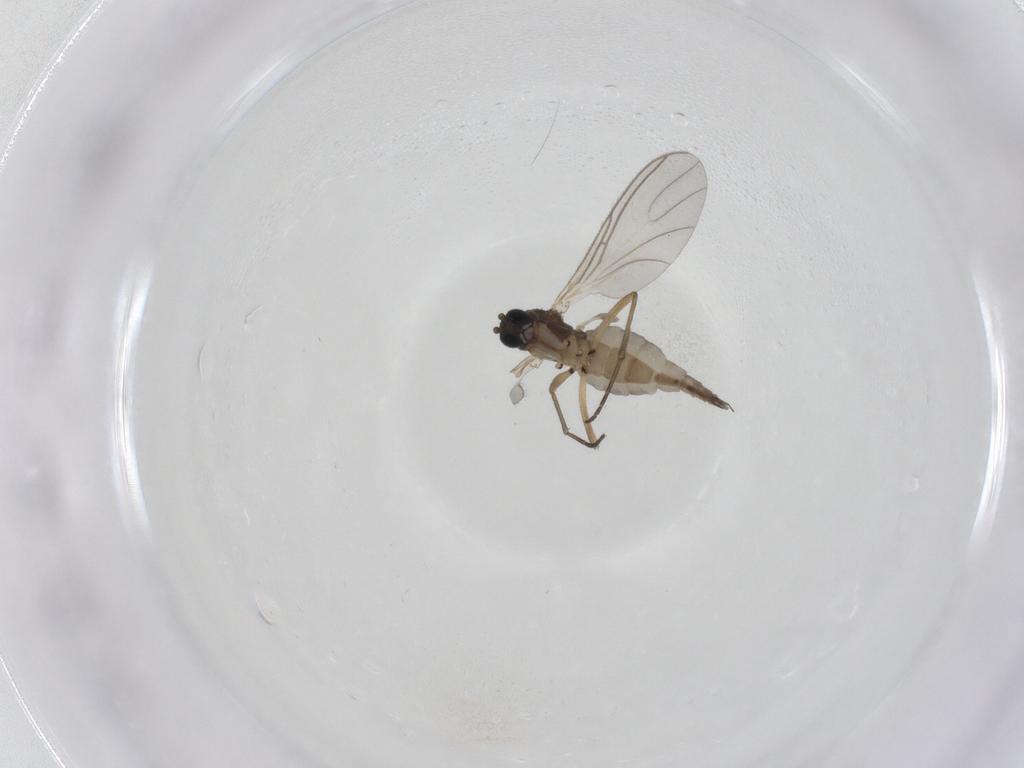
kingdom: Animalia
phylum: Arthropoda
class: Insecta
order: Diptera
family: Sciaridae
